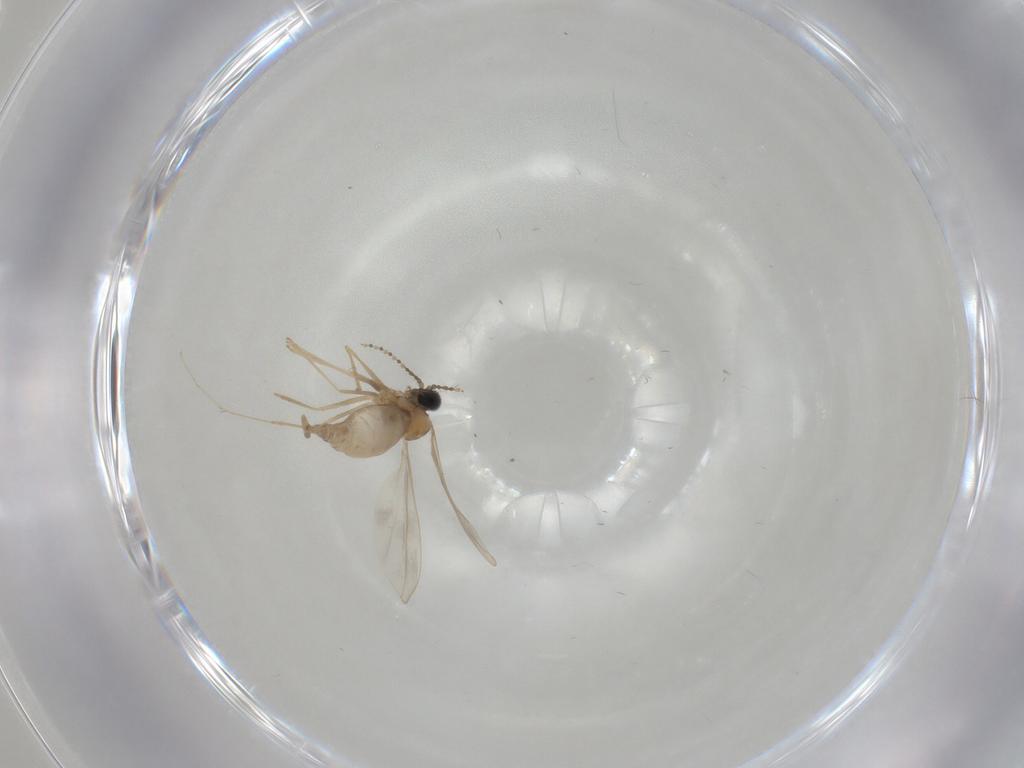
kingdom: Animalia
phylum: Arthropoda
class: Insecta
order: Diptera
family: Cecidomyiidae
